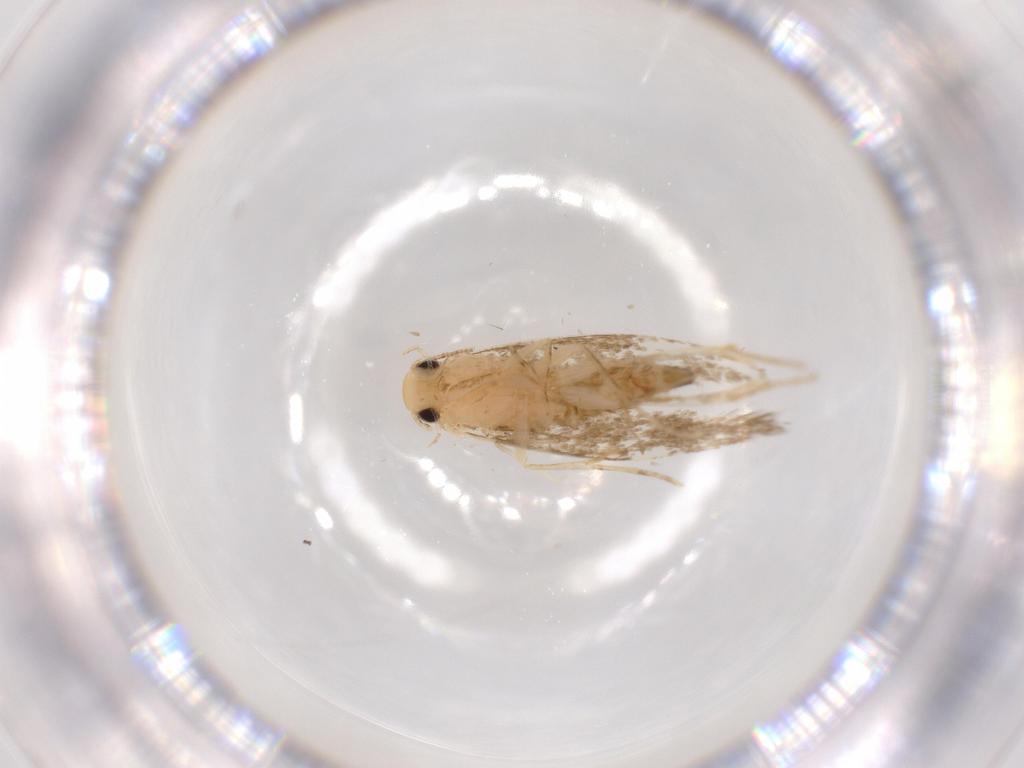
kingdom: Animalia
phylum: Arthropoda
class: Insecta
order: Lepidoptera
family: Tineidae
